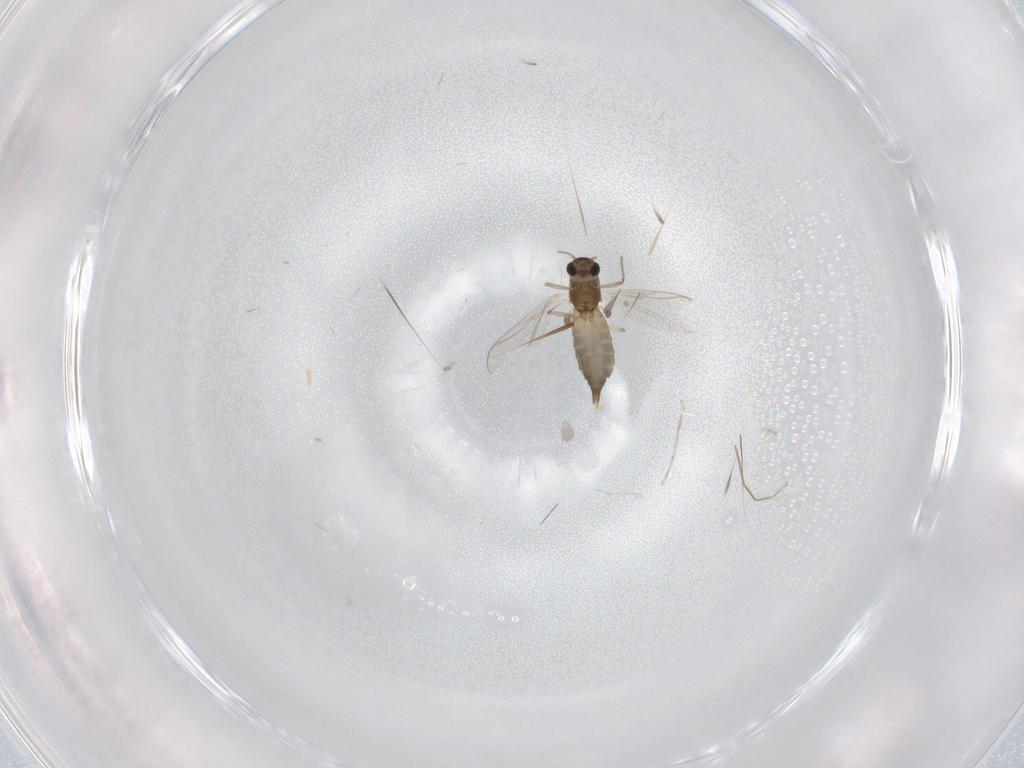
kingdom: Animalia
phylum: Arthropoda
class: Insecta
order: Diptera
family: Chironomidae
